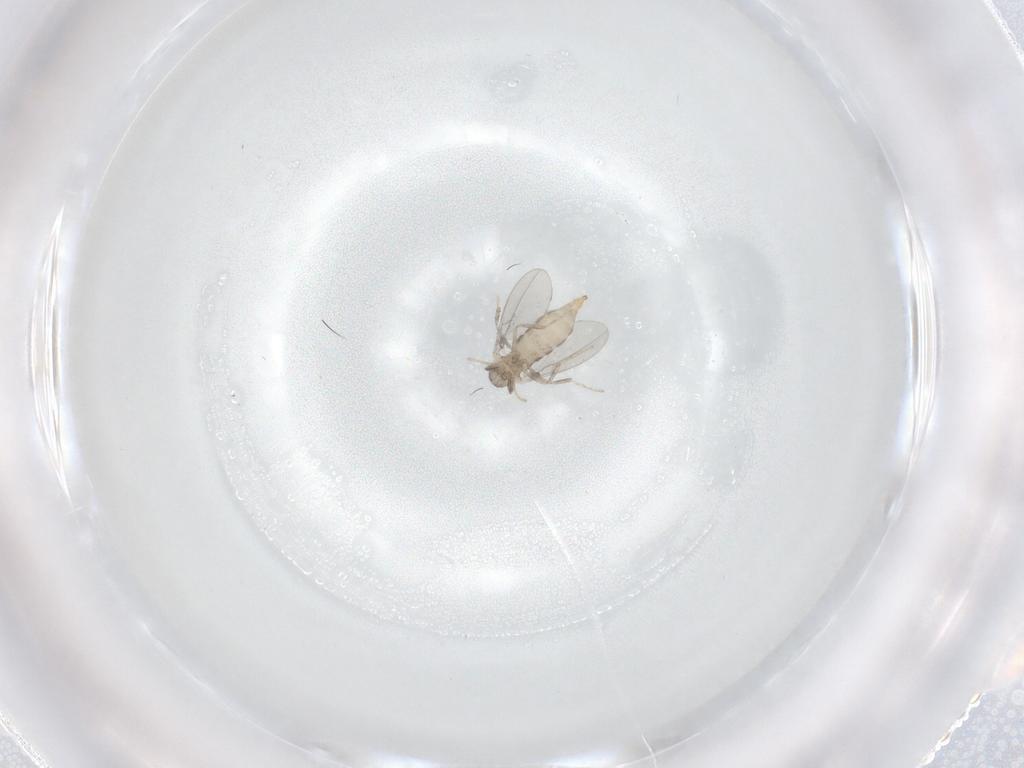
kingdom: Animalia
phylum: Arthropoda
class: Insecta
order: Diptera
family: Cecidomyiidae
